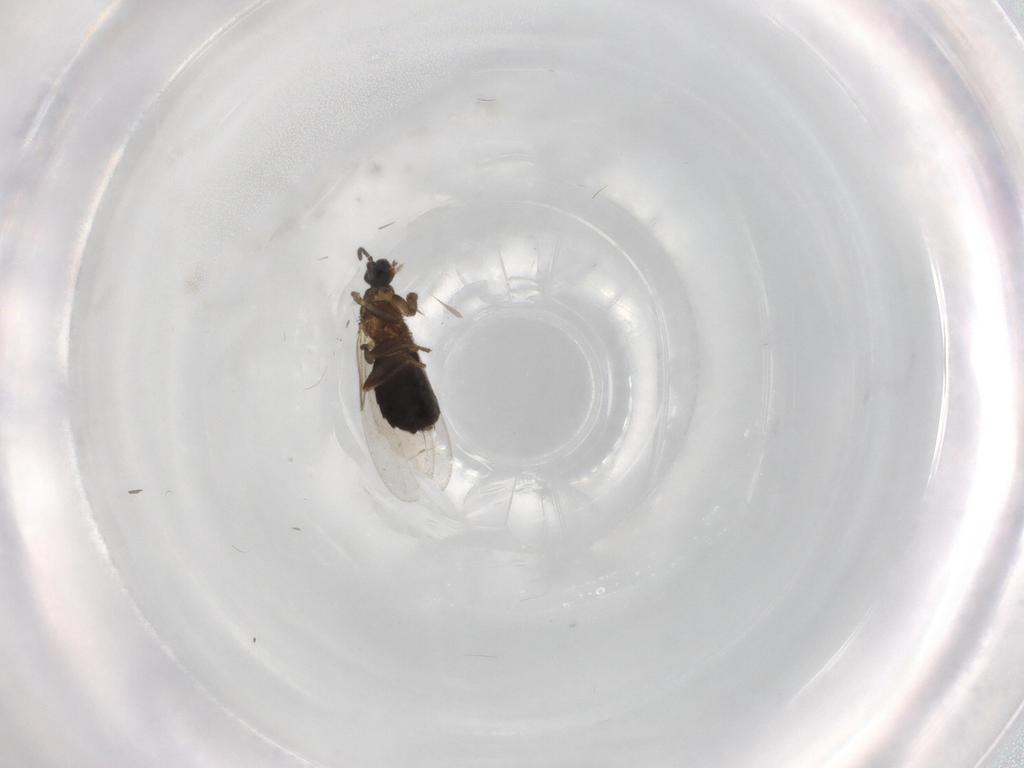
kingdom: Animalia
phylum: Arthropoda
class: Insecta
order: Diptera
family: Scatopsidae
